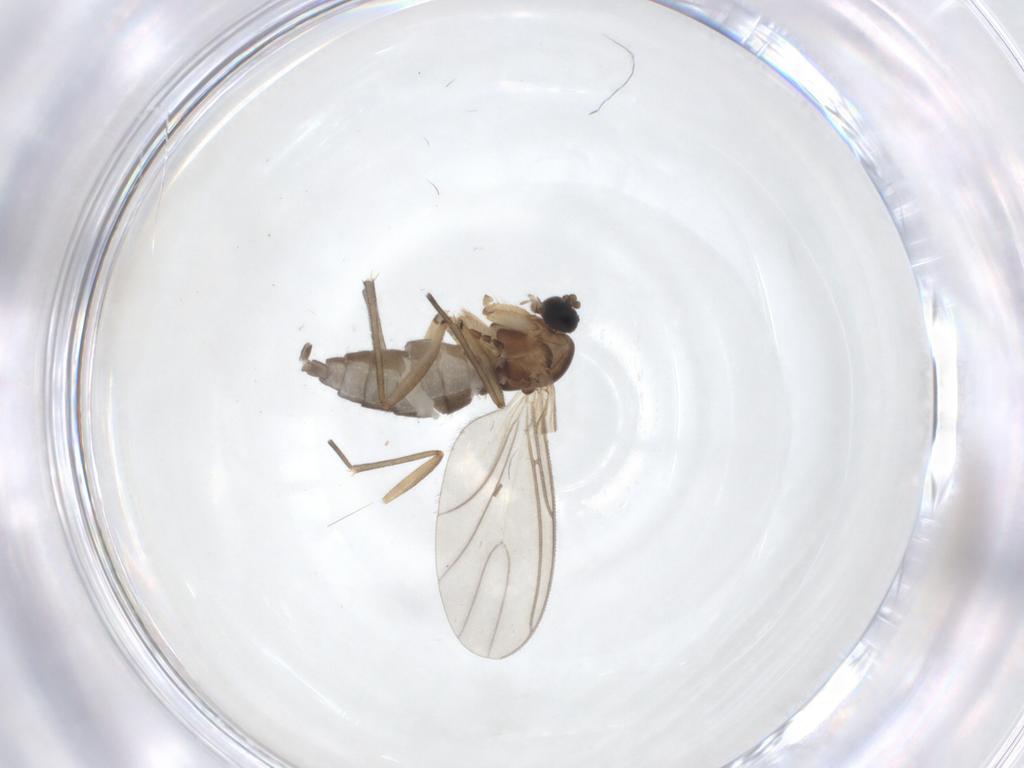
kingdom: Animalia
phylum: Arthropoda
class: Insecta
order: Diptera
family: Sciaridae
